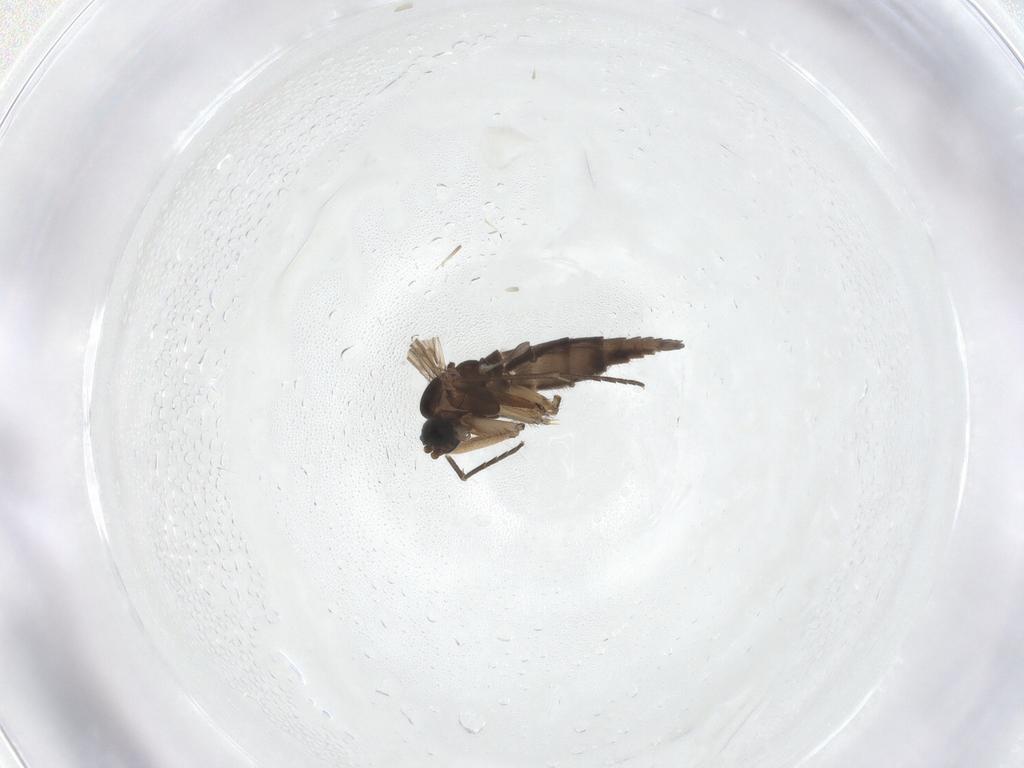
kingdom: Animalia
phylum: Arthropoda
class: Insecta
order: Diptera
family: Sciaridae
